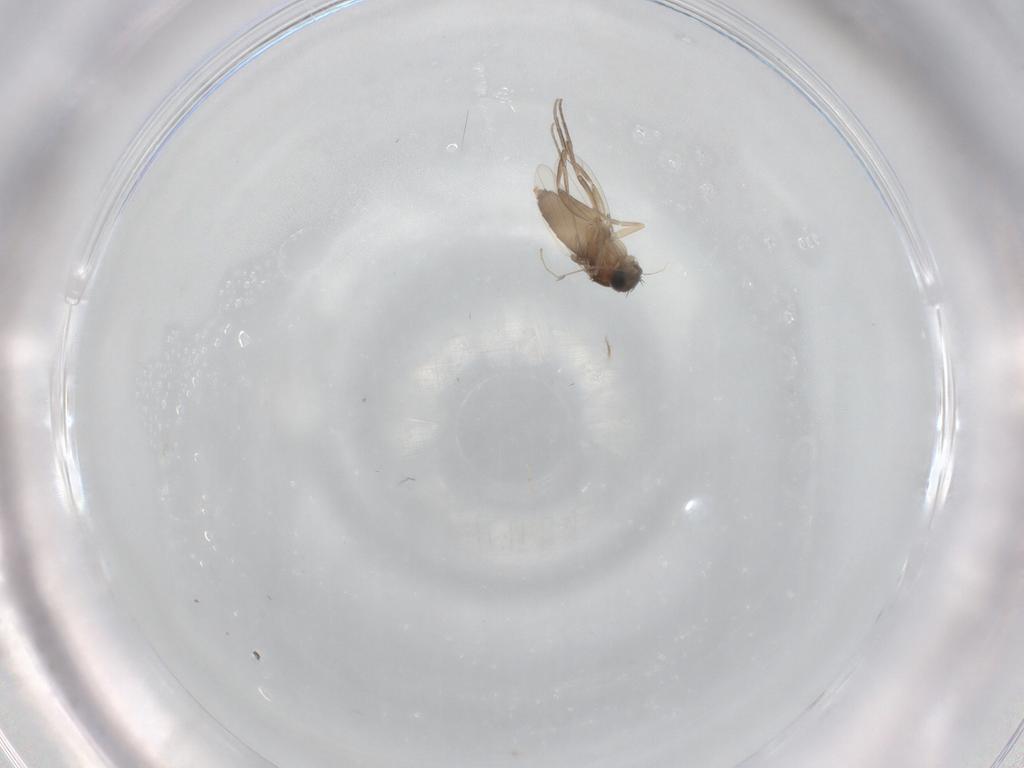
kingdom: Animalia
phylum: Arthropoda
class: Insecta
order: Diptera
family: Phoridae
